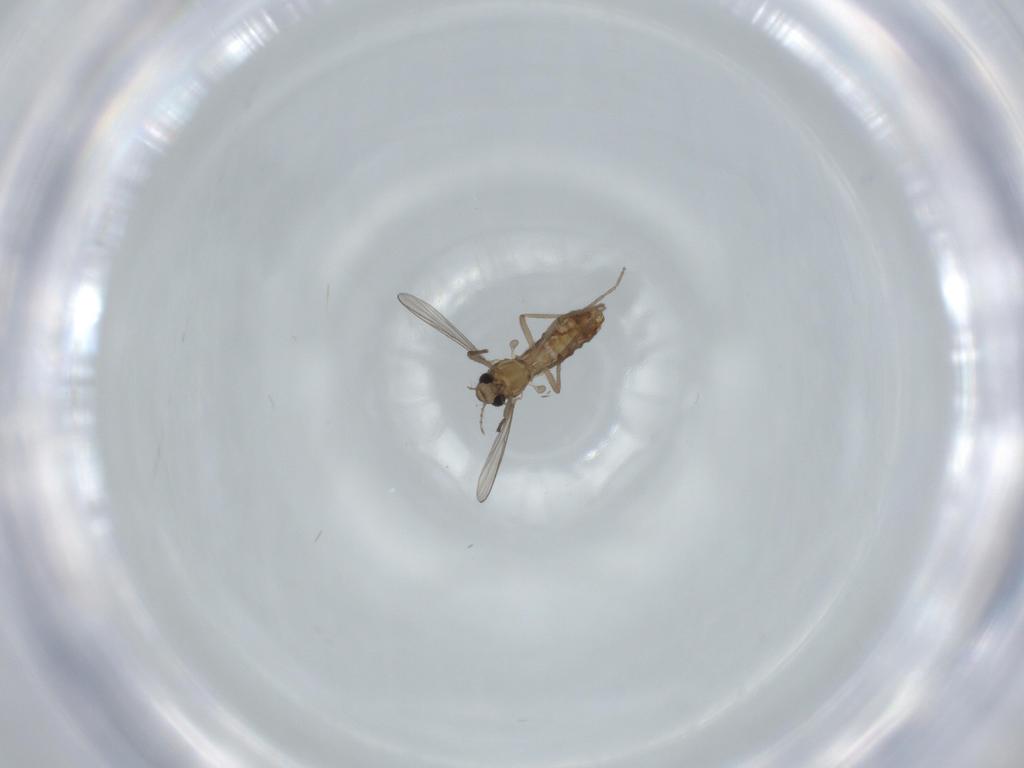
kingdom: Animalia
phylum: Arthropoda
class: Insecta
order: Diptera
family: Chironomidae
